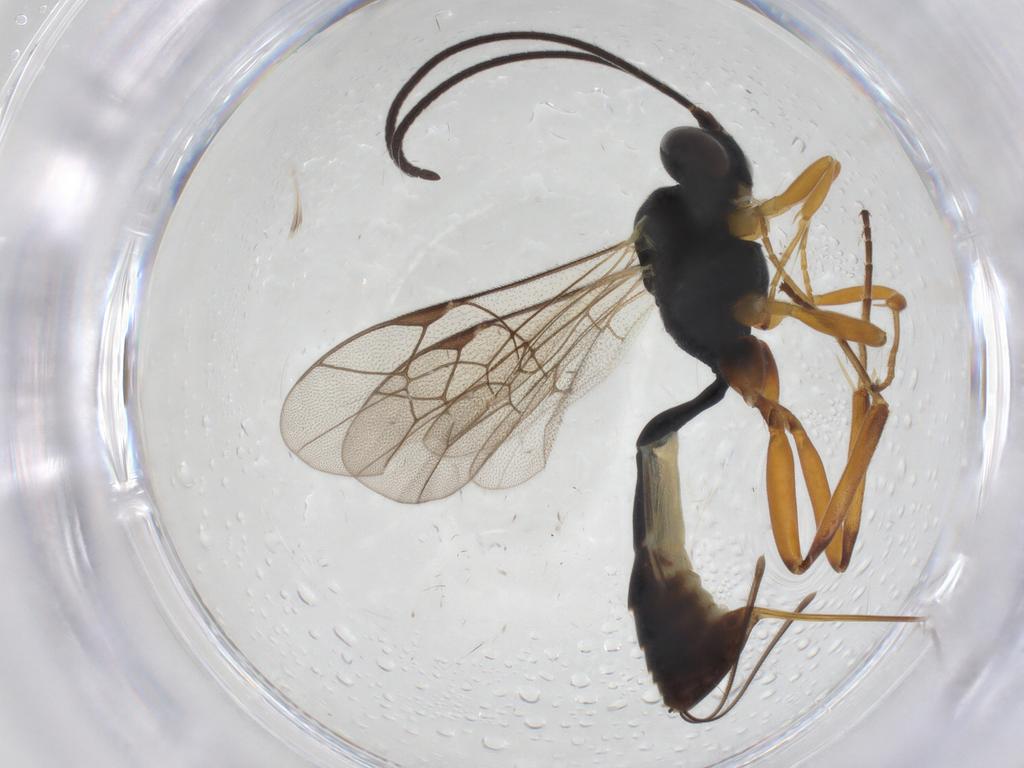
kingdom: Animalia
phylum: Arthropoda
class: Insecta
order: Hymenoptera
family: Ichneumonidae
